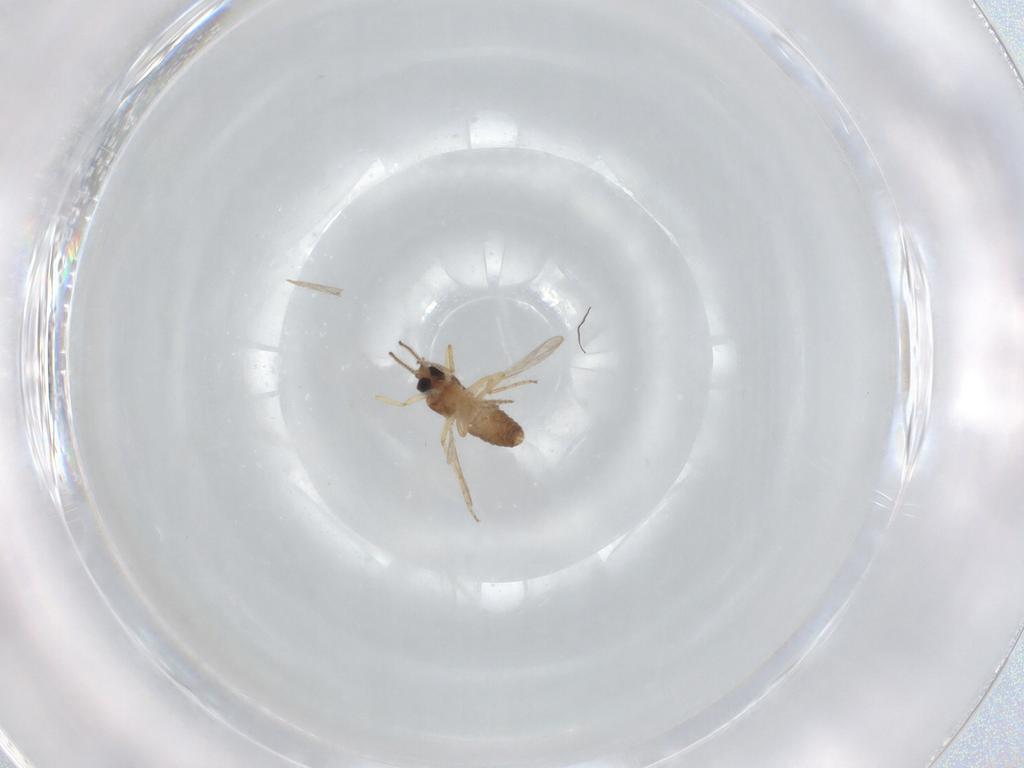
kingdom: Animalia
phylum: Arthropoda
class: Insecta
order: Diptera
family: Ceratopogonidae
